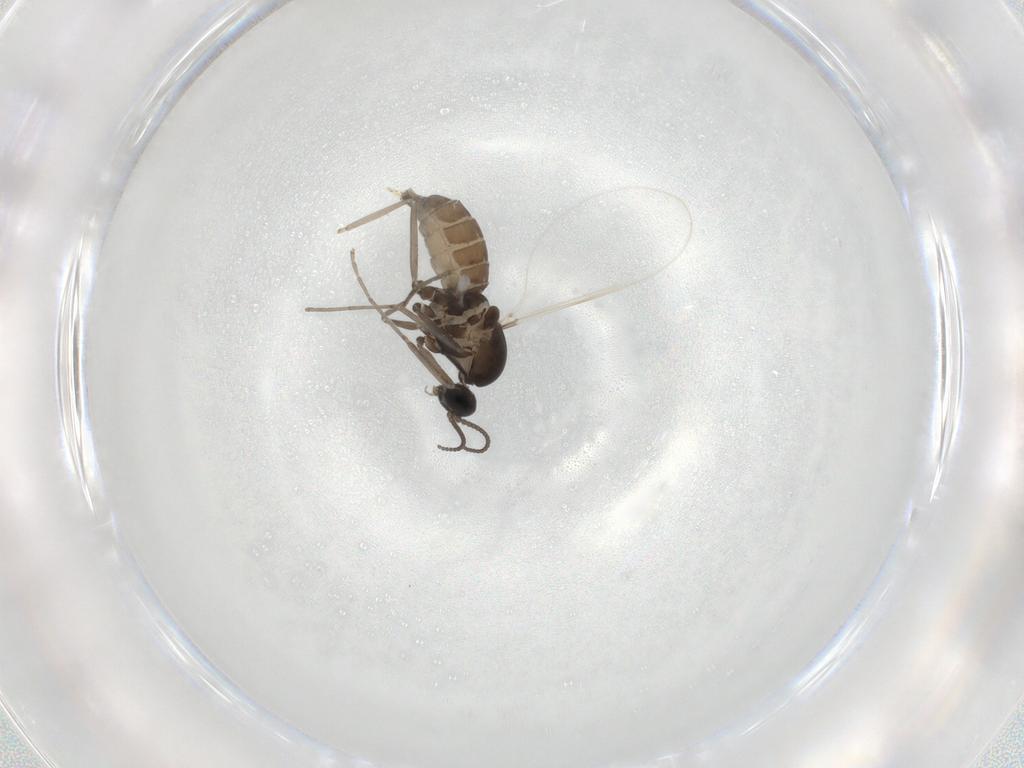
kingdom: Animalia
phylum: Arthropoda
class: Insecta
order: Diptera
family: Cecidomyiidae
